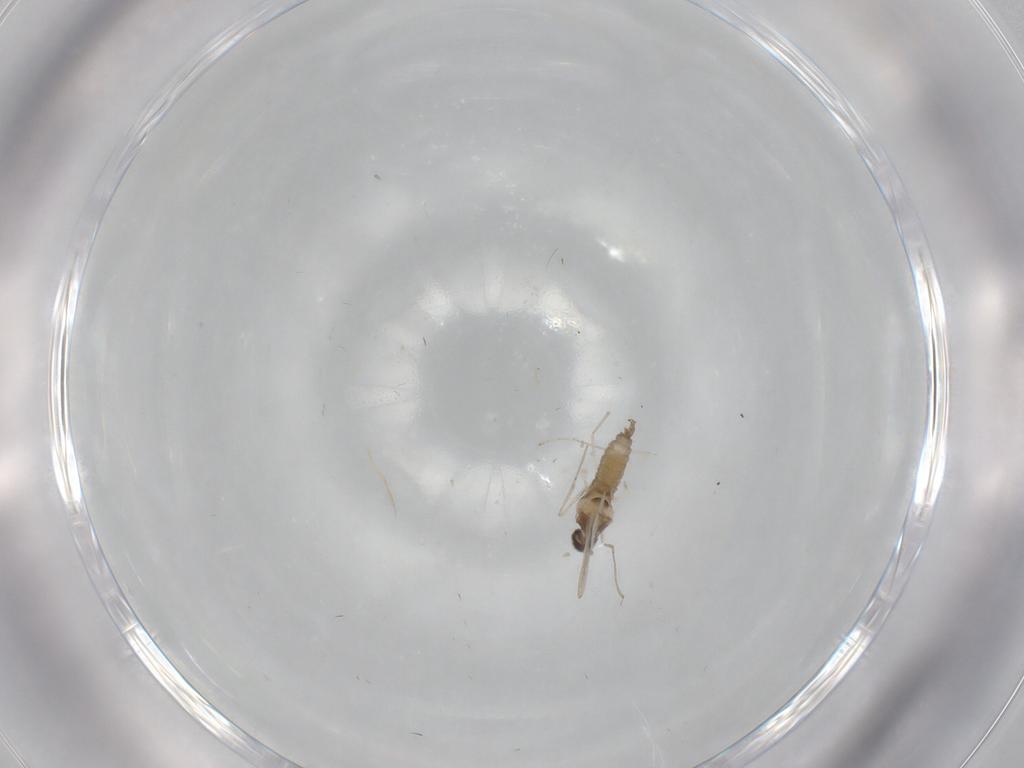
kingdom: Animalia
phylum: Arthropoda
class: Insecta
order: Diptera
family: Cecidomyiidae
